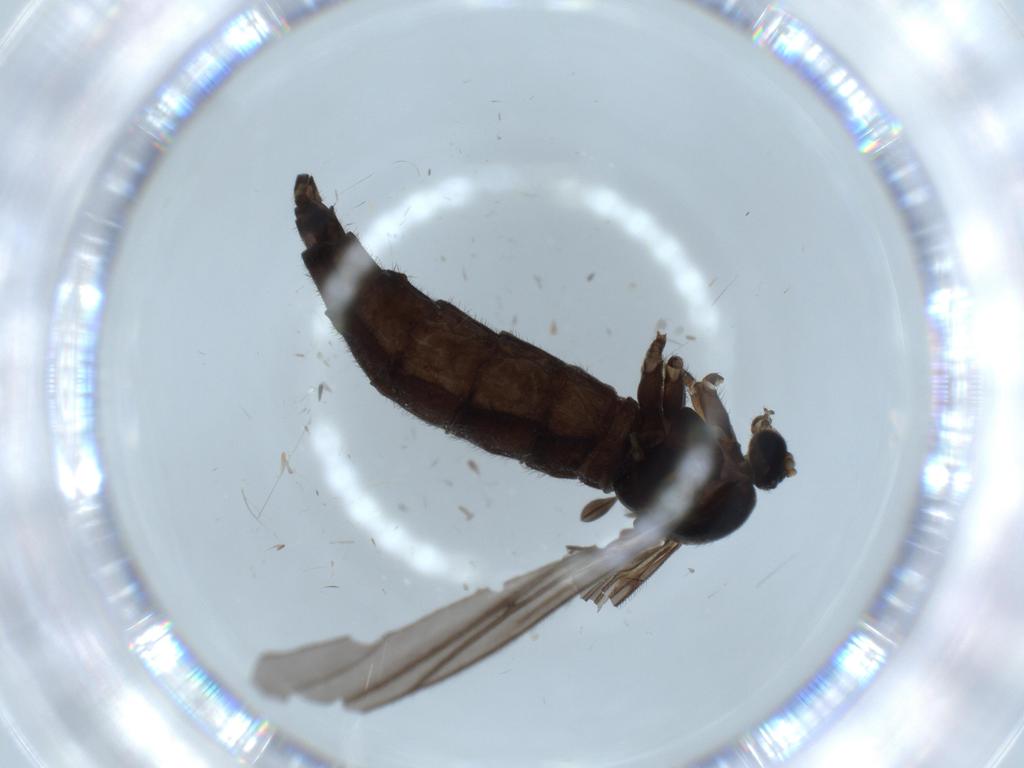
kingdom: Animalia
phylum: Arthropoda
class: Insecta
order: Diptera
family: Sciaridae
